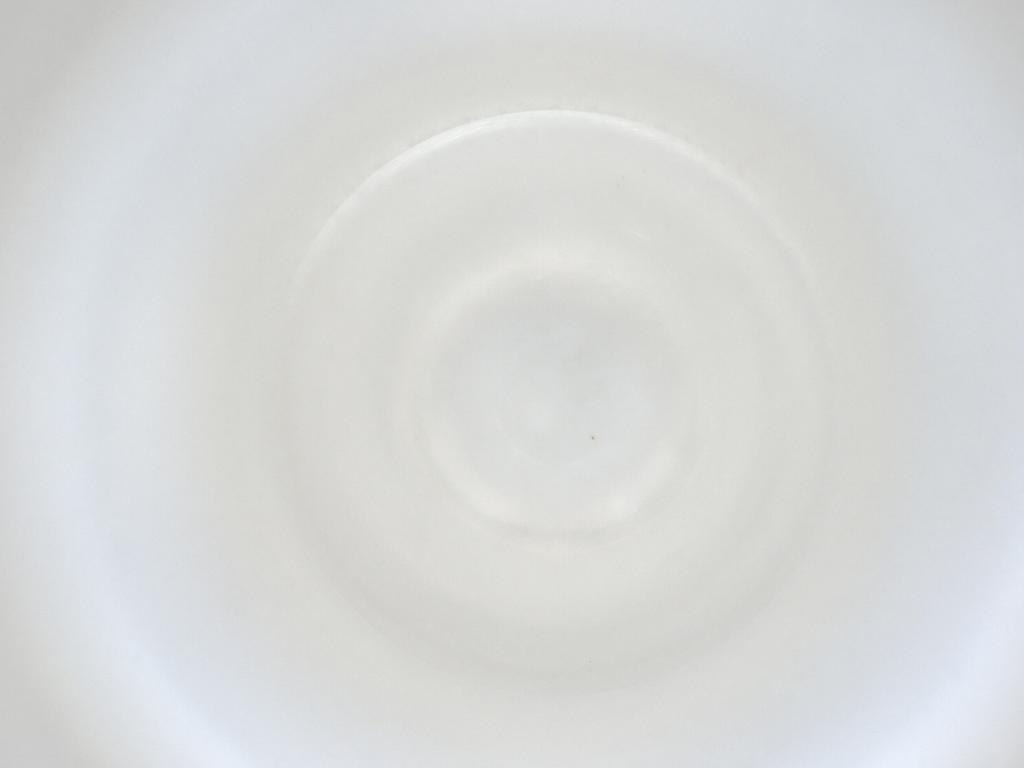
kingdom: Animalia
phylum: Arthropoda
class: Insecta
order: Diptera
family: Cecidomyiidae
